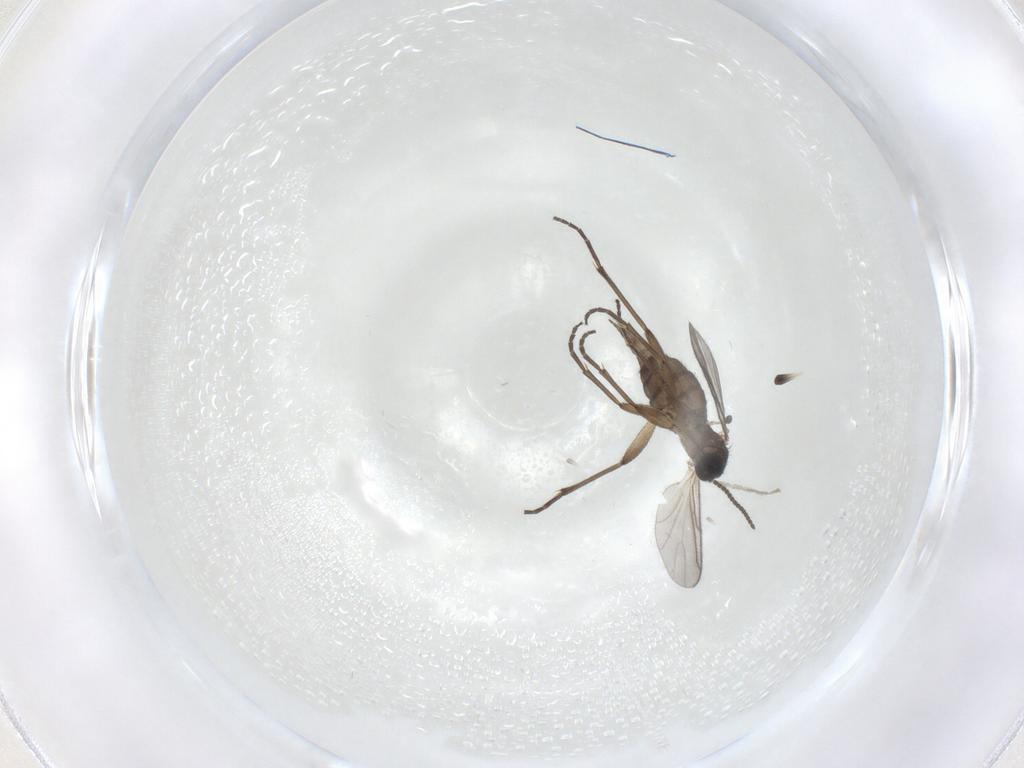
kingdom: Animalia
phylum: Arthropoda
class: Insecta
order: Diptera
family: Sciaridae
